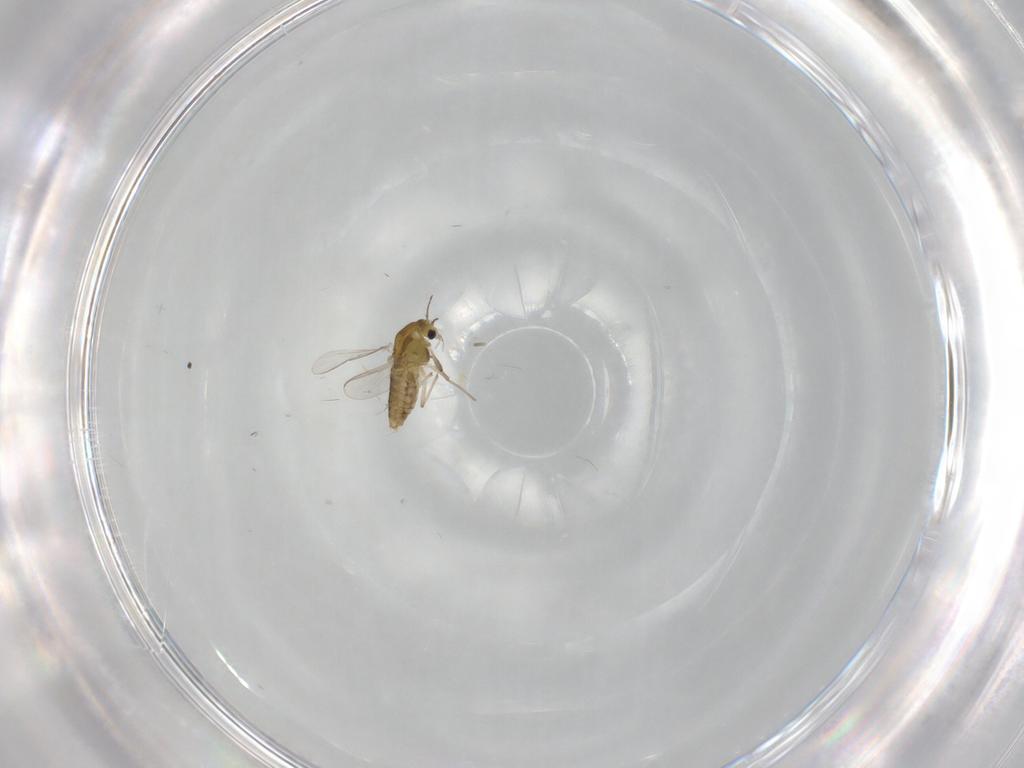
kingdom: Animalia
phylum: Arthropoda
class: Insecta
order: Diptera
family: Chironomidae
